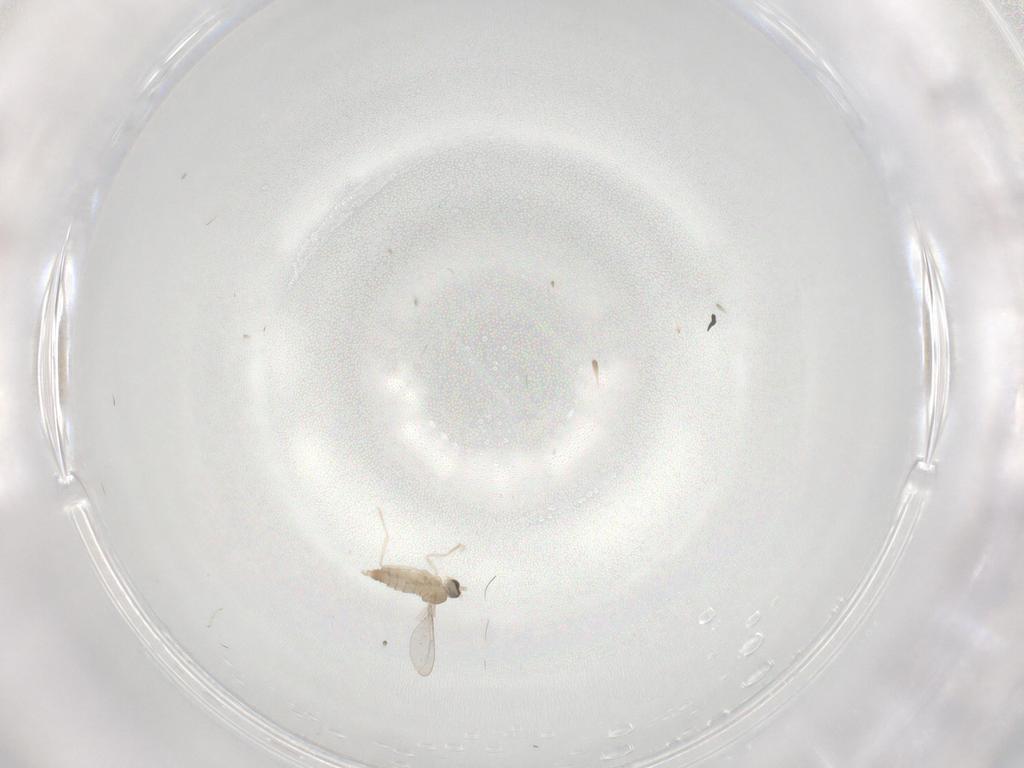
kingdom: Animalia
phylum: Arthropoda
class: Insecta
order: Diptera
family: Cecidomyiidae
